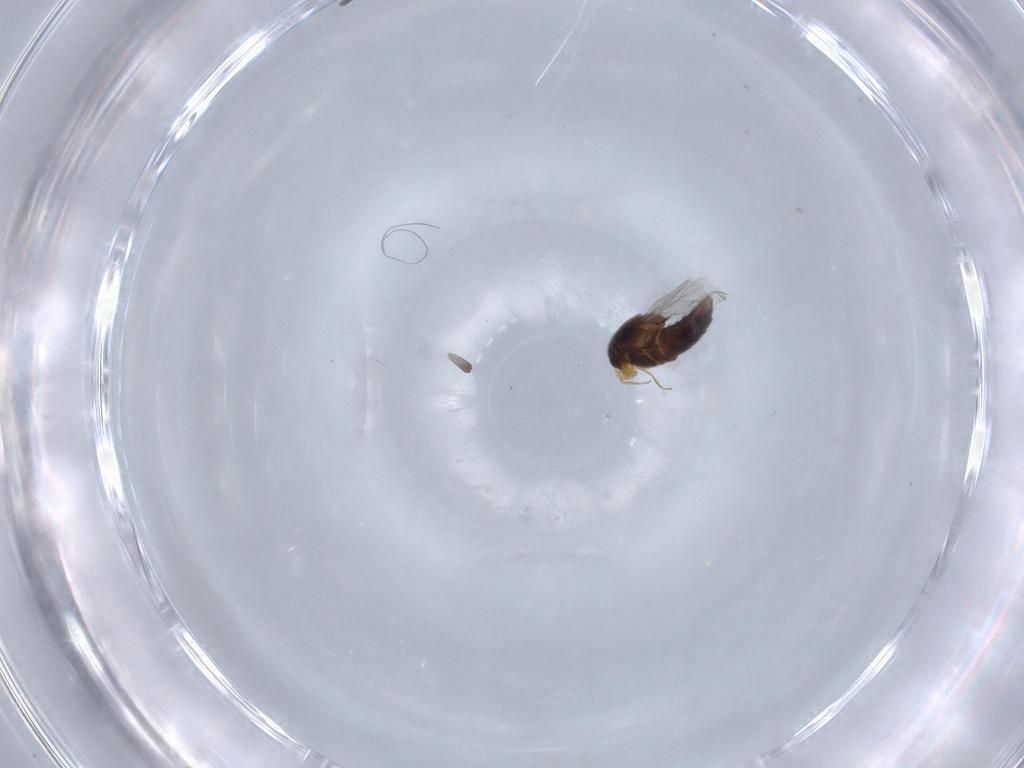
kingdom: Animalia
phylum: Arthropoda
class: Insecta
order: Coleoptera
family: Staphylinidae
